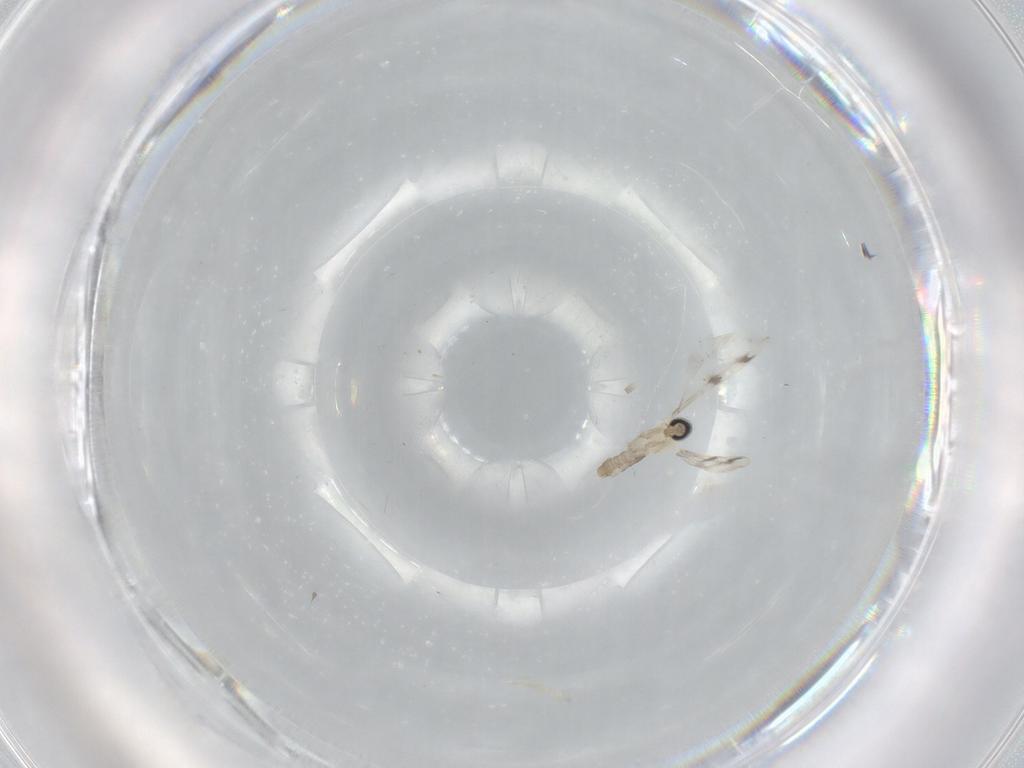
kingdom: Animalia
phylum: Arthropoda
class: Insecta
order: Diptera
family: Cecidomyiidae
